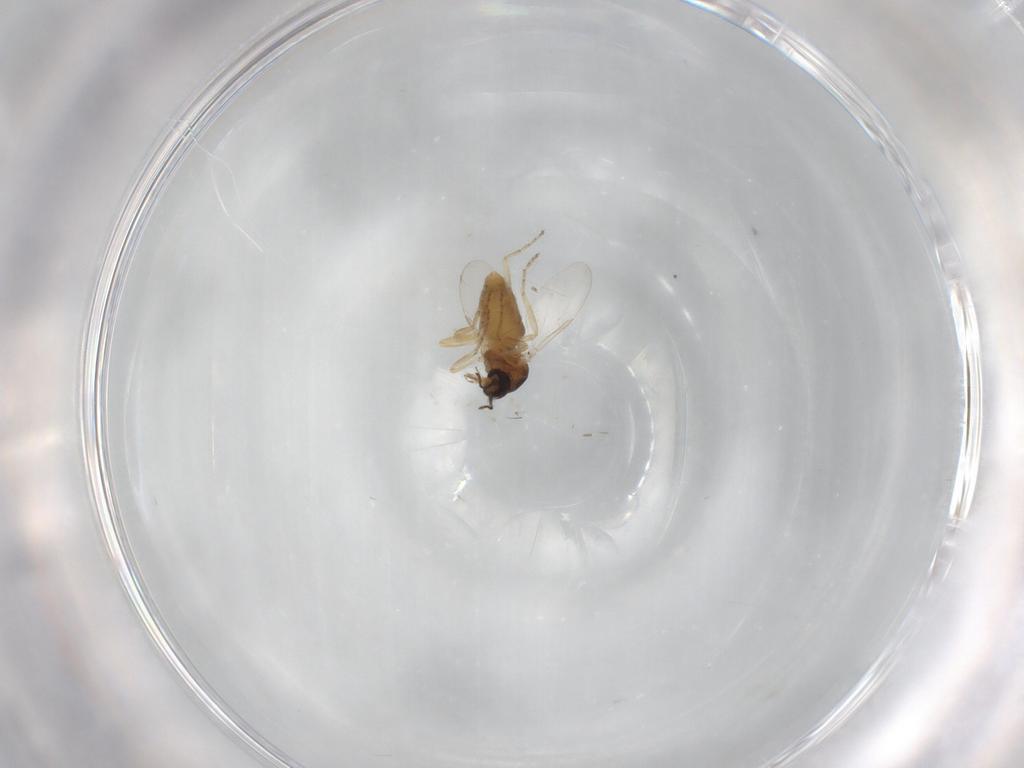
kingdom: Animalia
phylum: Arthropoda
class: Insecta
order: Diptera
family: Ceratopogonidae
